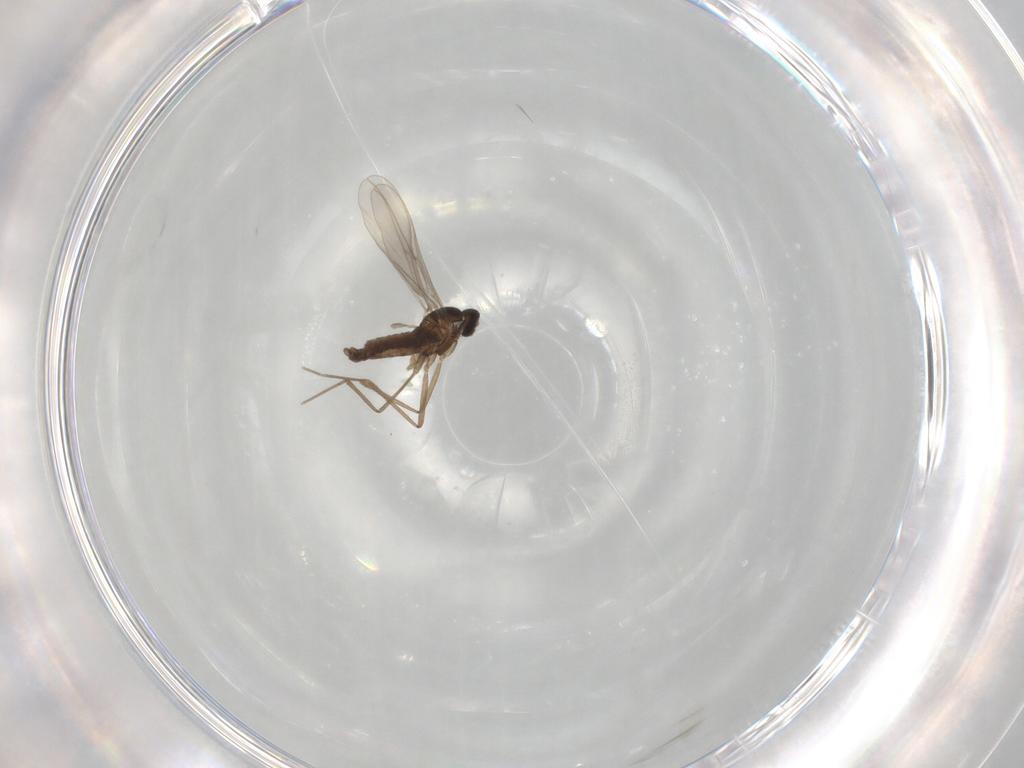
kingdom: Animalia
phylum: Arthropoda
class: Insecta
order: Diptera
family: Cecidomyiidae
